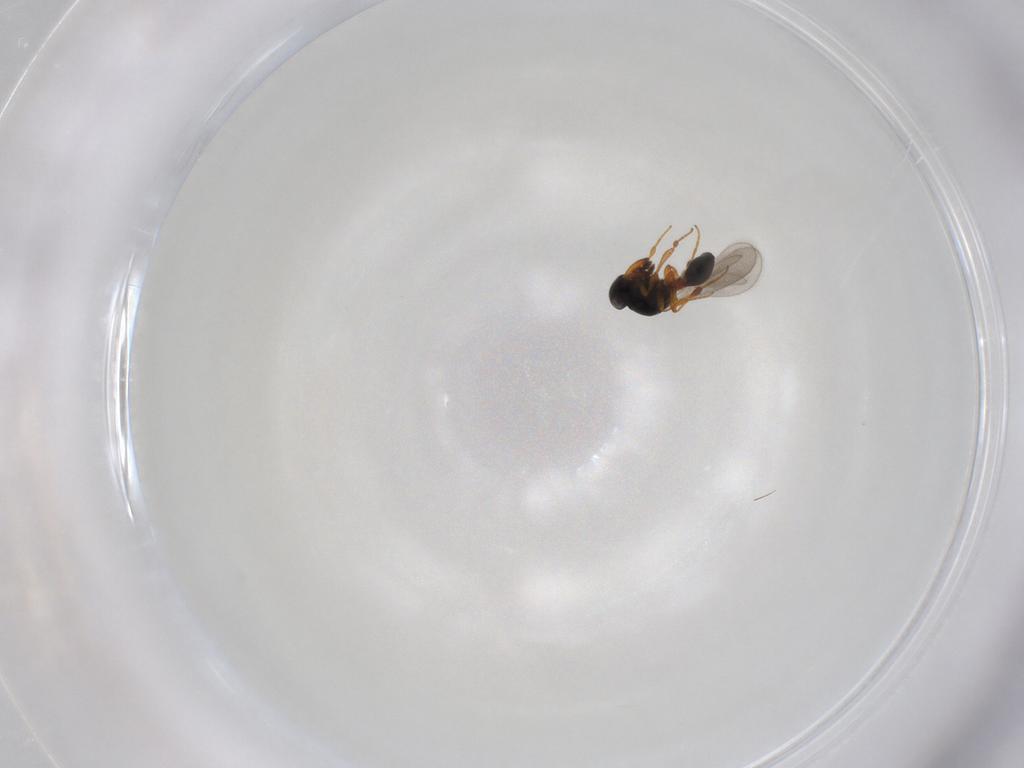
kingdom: Animalia
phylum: Arthropoda
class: Insecta
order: Hymenoptera
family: Platygastridae
